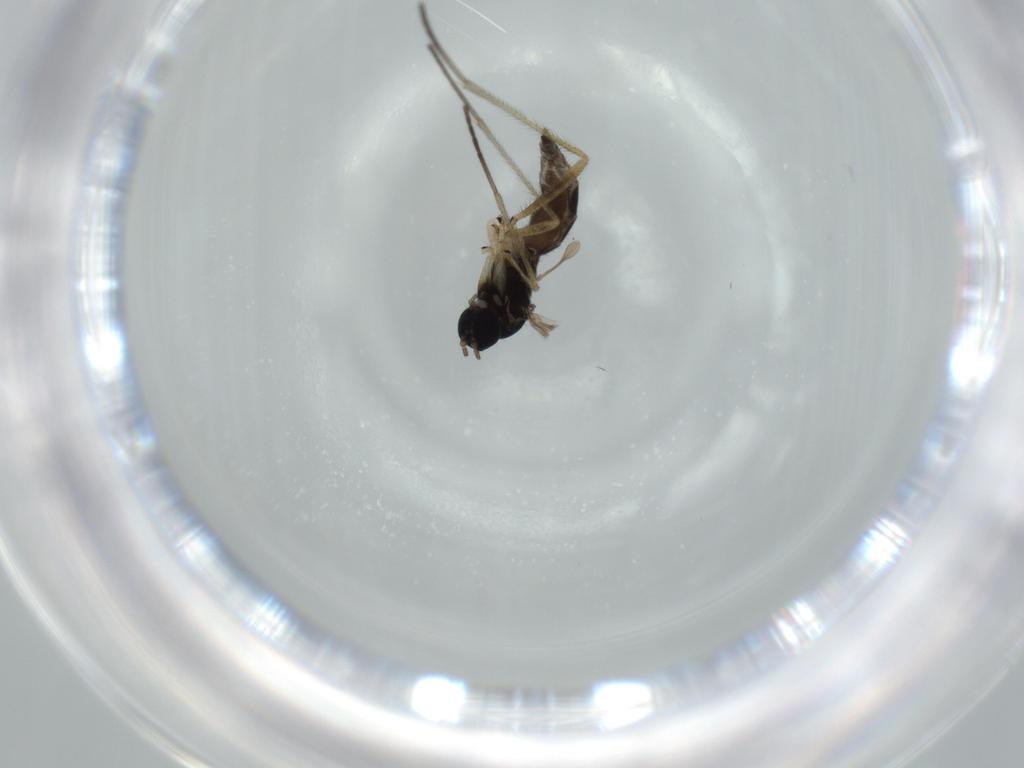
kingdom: Animalia
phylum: Arthropoda
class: Insecta
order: Diptera
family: Sciaridae
